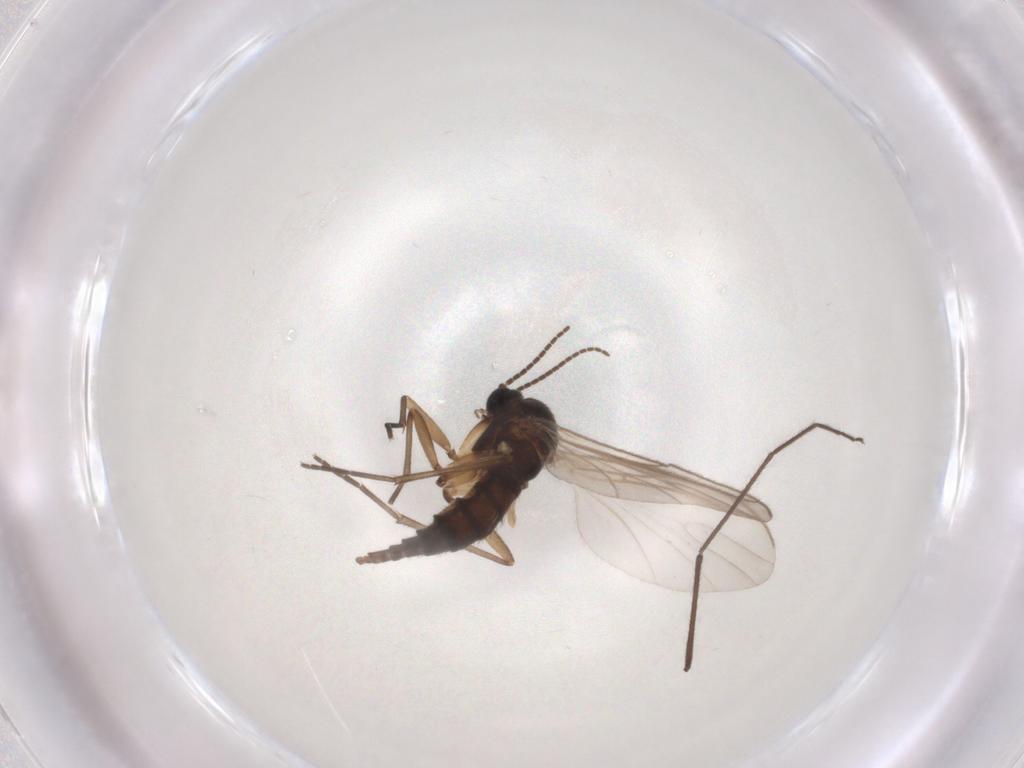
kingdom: Animalia
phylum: Arthropoda
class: Insecta
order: Diptera
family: Sciaridae
